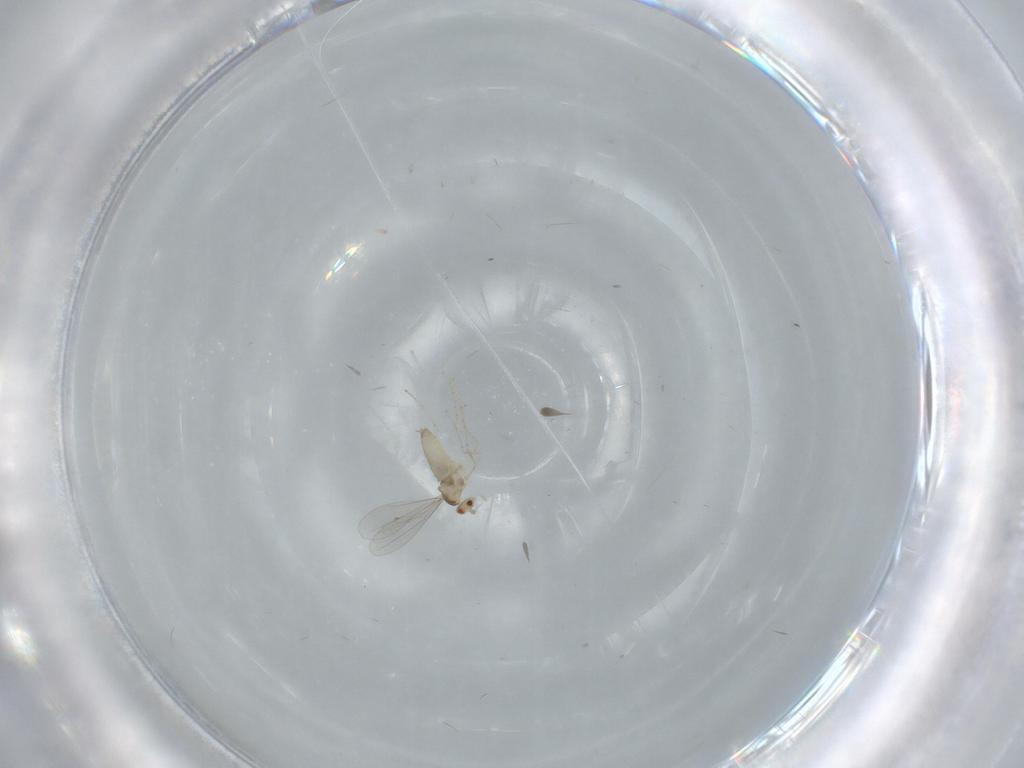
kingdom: Animalia
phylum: Arthropoda
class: Insecta
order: Diptera
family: Cecidomyiidae
